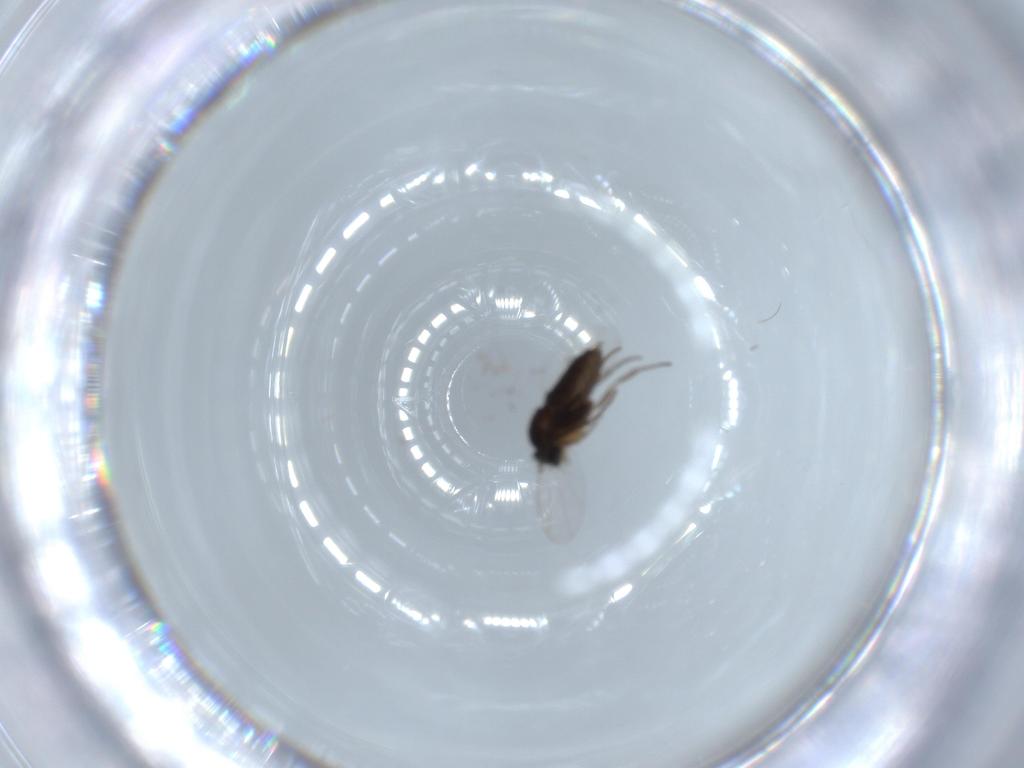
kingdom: Animalia
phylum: Arthropoda
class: Insecta
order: Diptera
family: Phoridae
